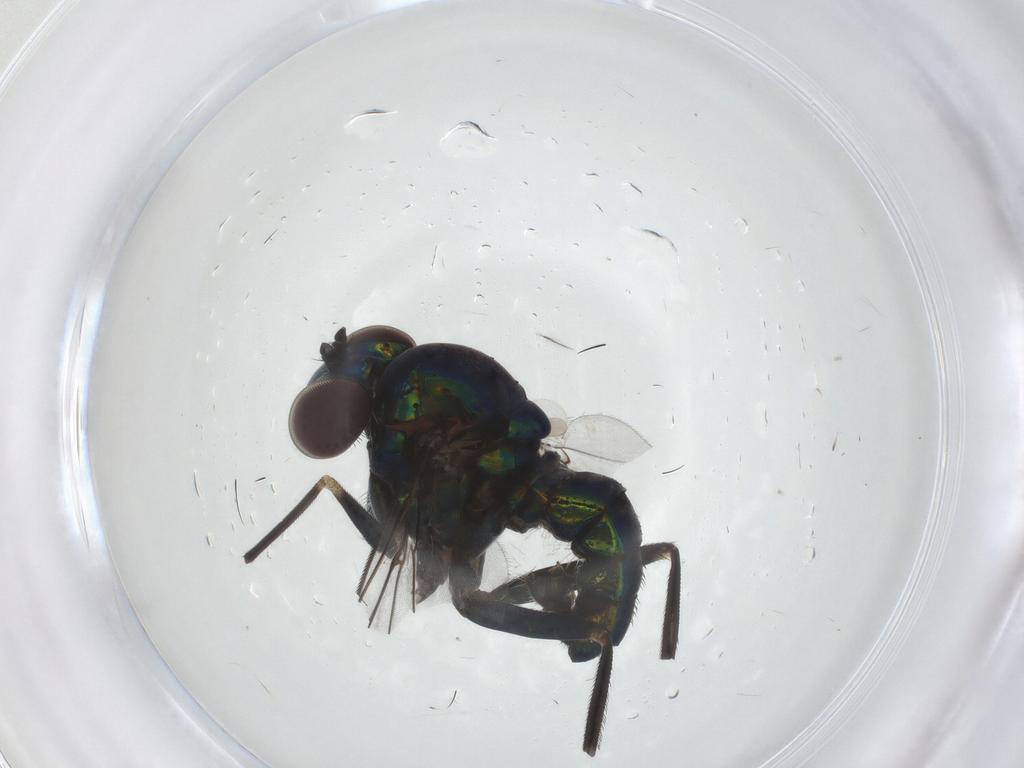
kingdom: Animalia
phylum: Arthropoda
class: Insecta
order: Diptera
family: Dolichopodidae
